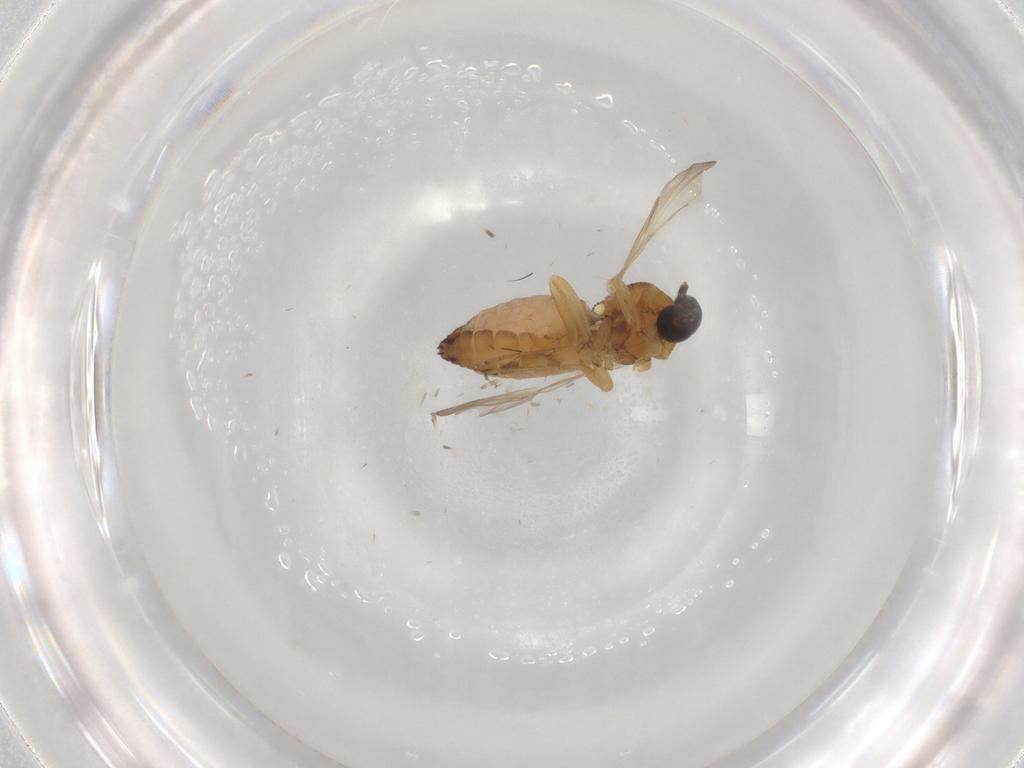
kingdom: Animalia
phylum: Arthropoda
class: Insecta
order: Diptera
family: Ceratopogonidae
